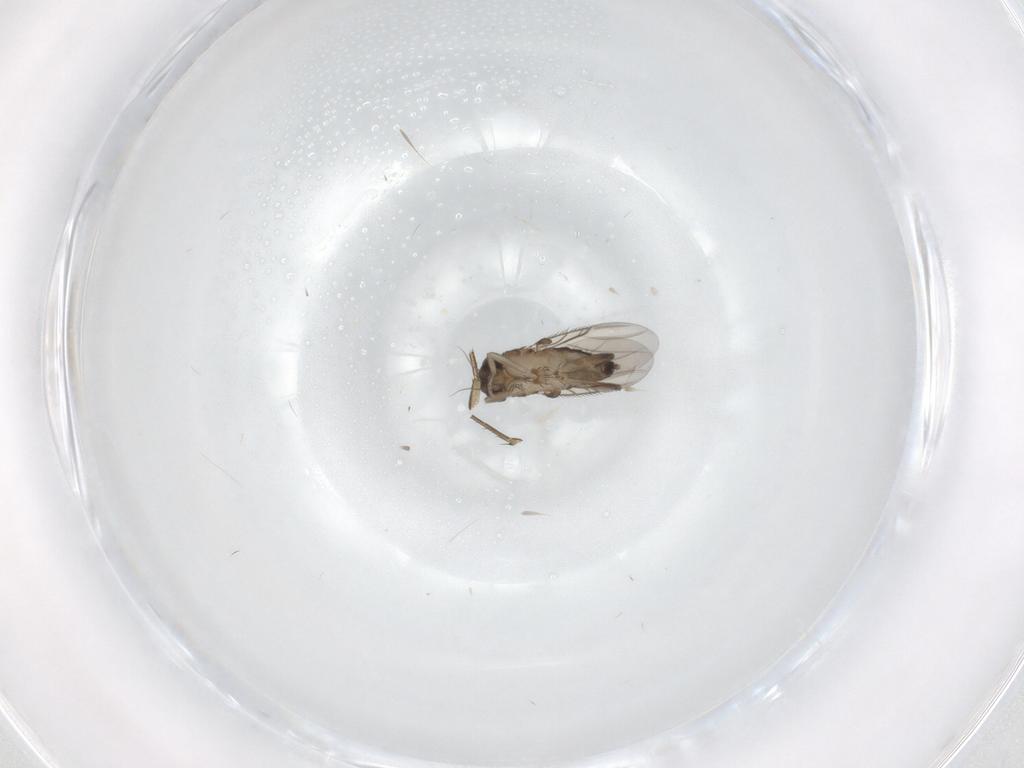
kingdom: Animalia
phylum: Arthropoda
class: Insecta
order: Diptera
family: Phoridae
